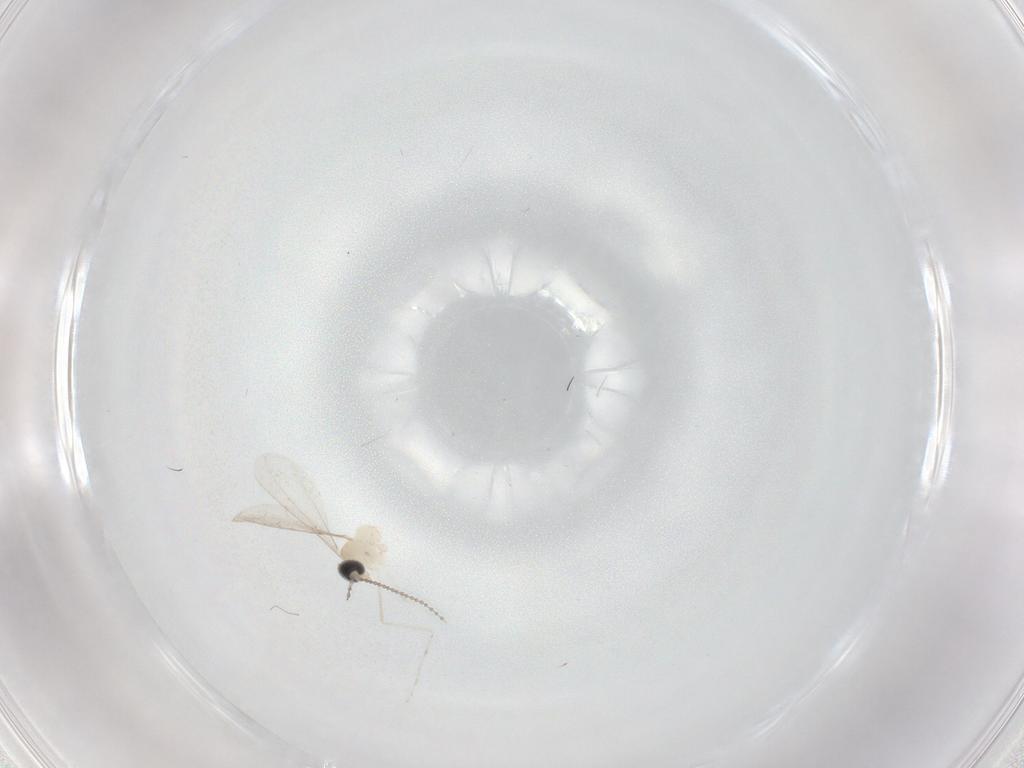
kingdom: Animalia
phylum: Arthropoda
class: Insecta
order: Diptera
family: Cecidomyiidae
